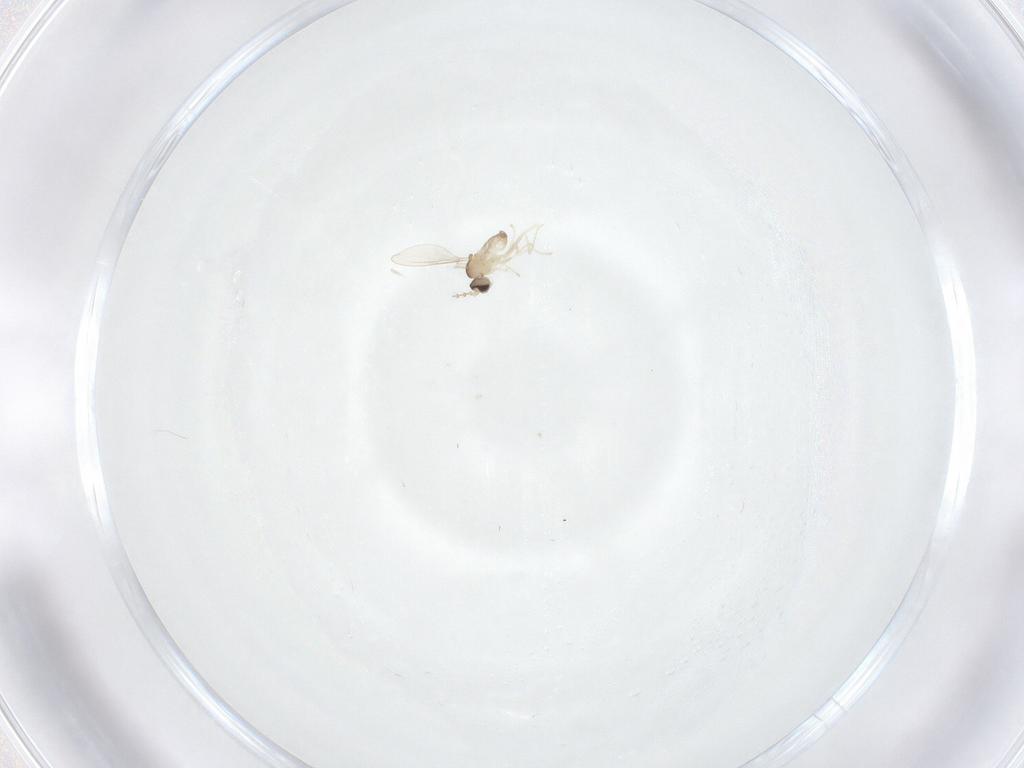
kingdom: Animalia
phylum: Arthropoda
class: Insecta
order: Diptera
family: Cecidomyiidae
